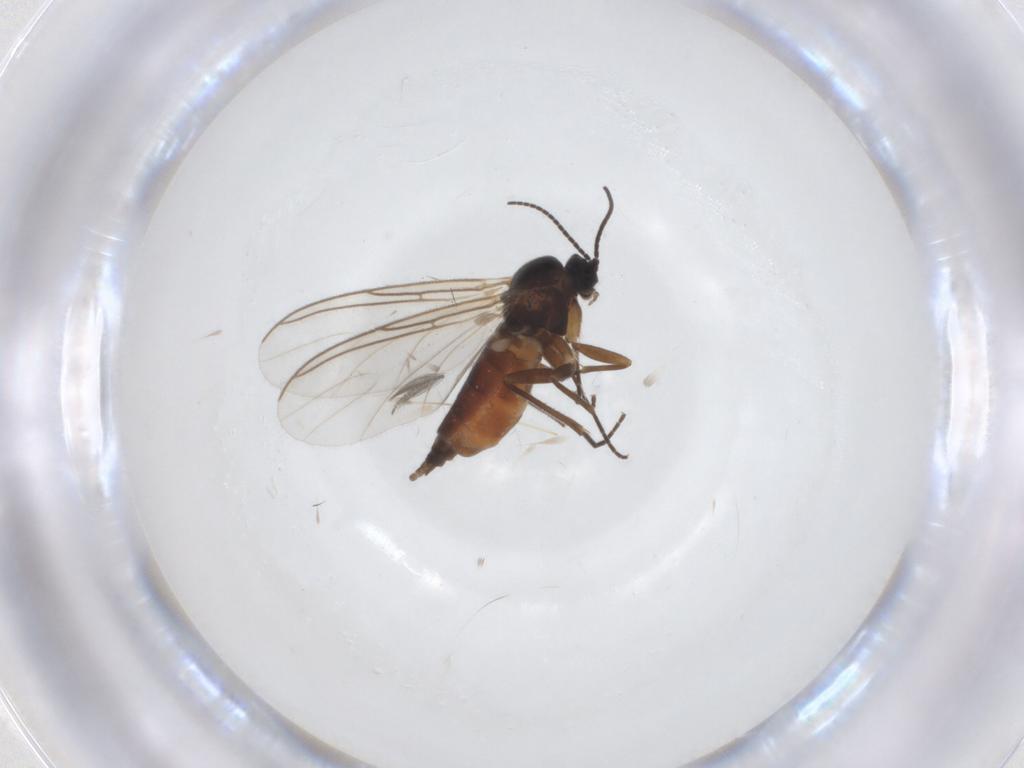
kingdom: Animalia
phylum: Arthropoda
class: Insecta
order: Diptera
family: Ceratopogonidae
